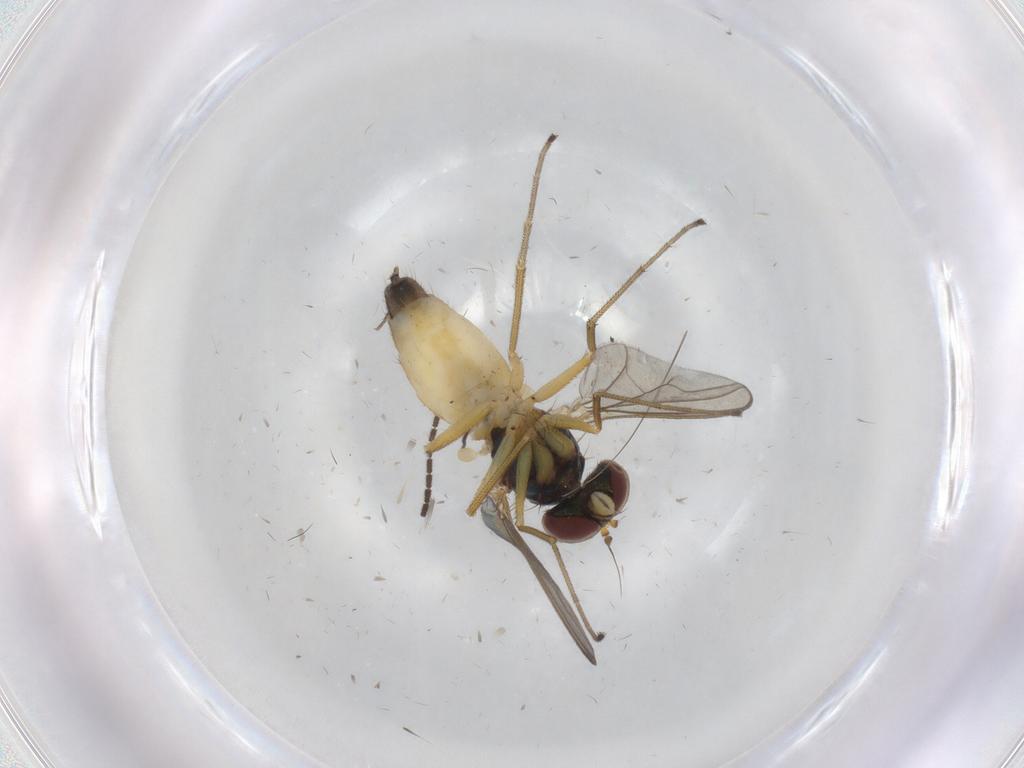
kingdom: Animalia
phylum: Arthropoda
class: Insecta
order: Diptera
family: Dolichopodidae
